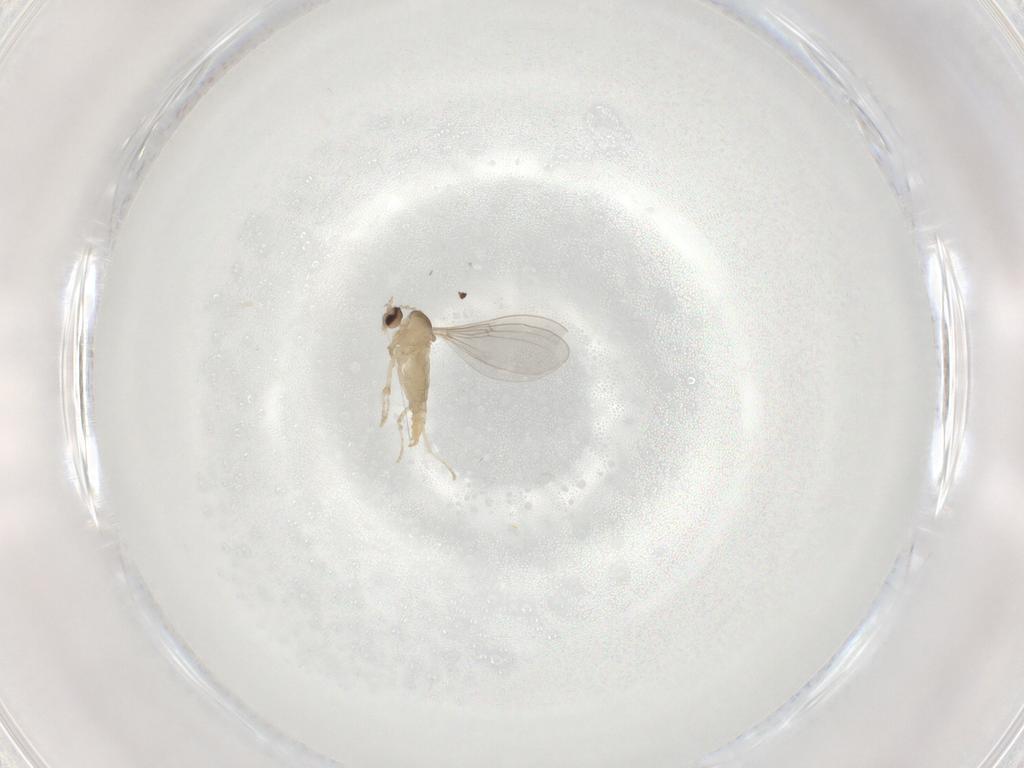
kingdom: Animalia
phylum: Arthropoda
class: Insecta
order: Diptera
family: Cecidomyiidae
